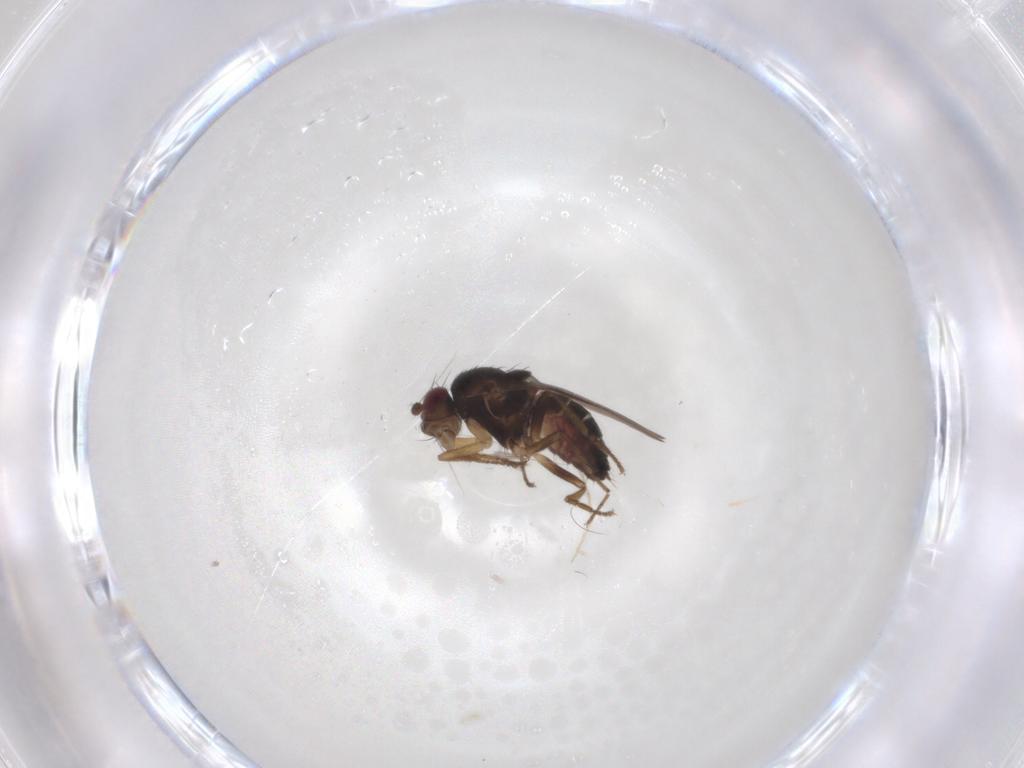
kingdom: Animalia
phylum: Arthropoda
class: Insecta
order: Diptera
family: Sphaeroceridae
